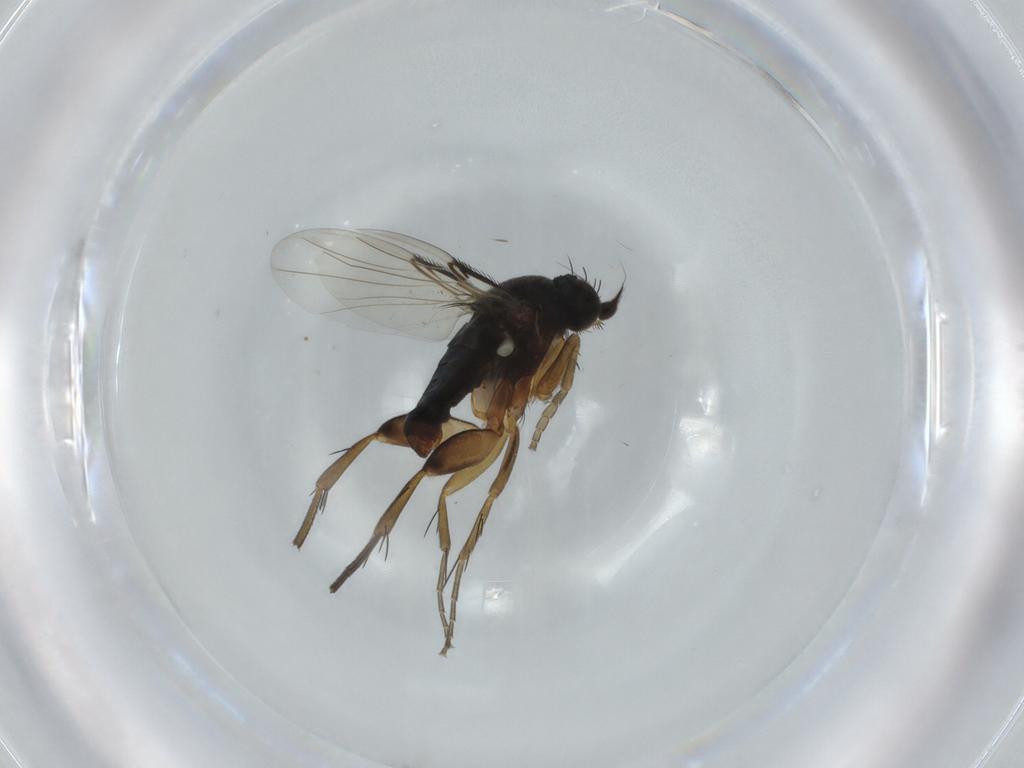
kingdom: Animalia
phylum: Arthropoda
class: Insecta
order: Diptera
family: Phoridae
